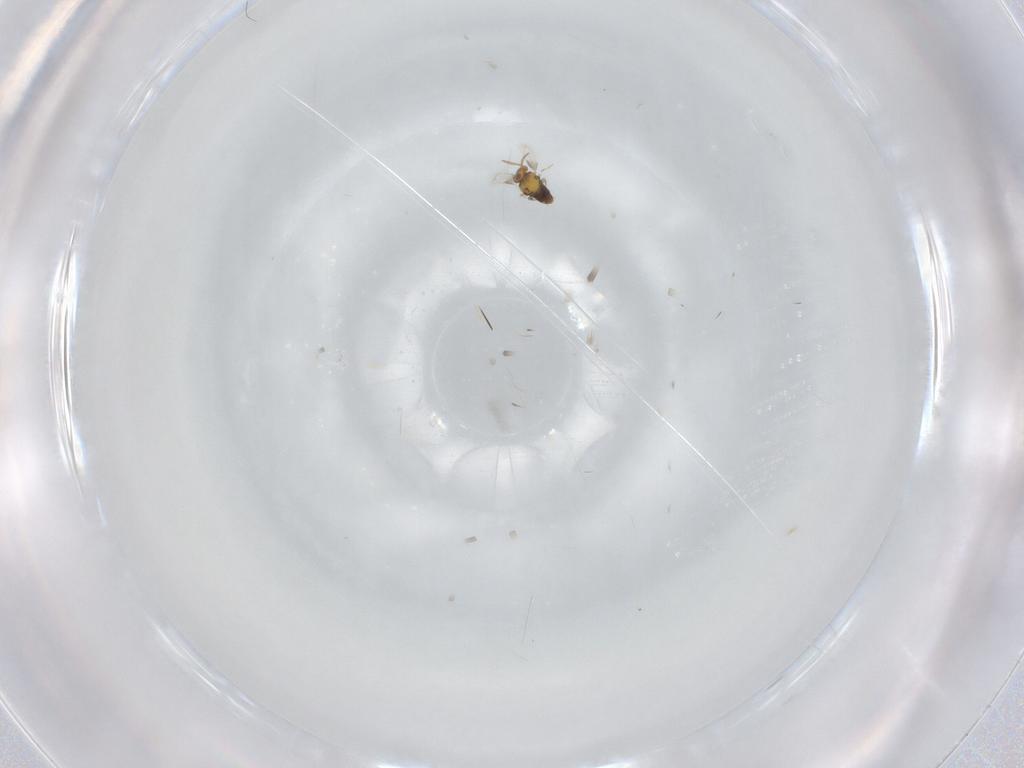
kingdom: Animalia
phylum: Arthropoda
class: Insecta
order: Hymenoptera
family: Aphelinidae
